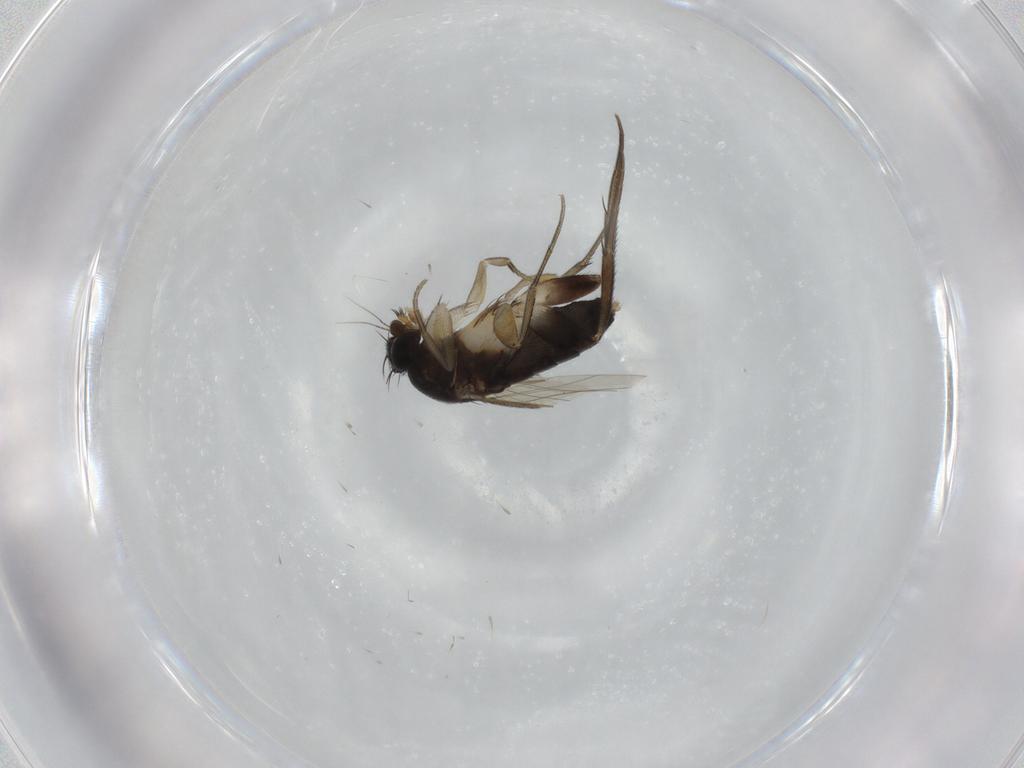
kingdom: Animalia
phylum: Arthropoda
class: Insecta
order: Diptera
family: Phoridae
